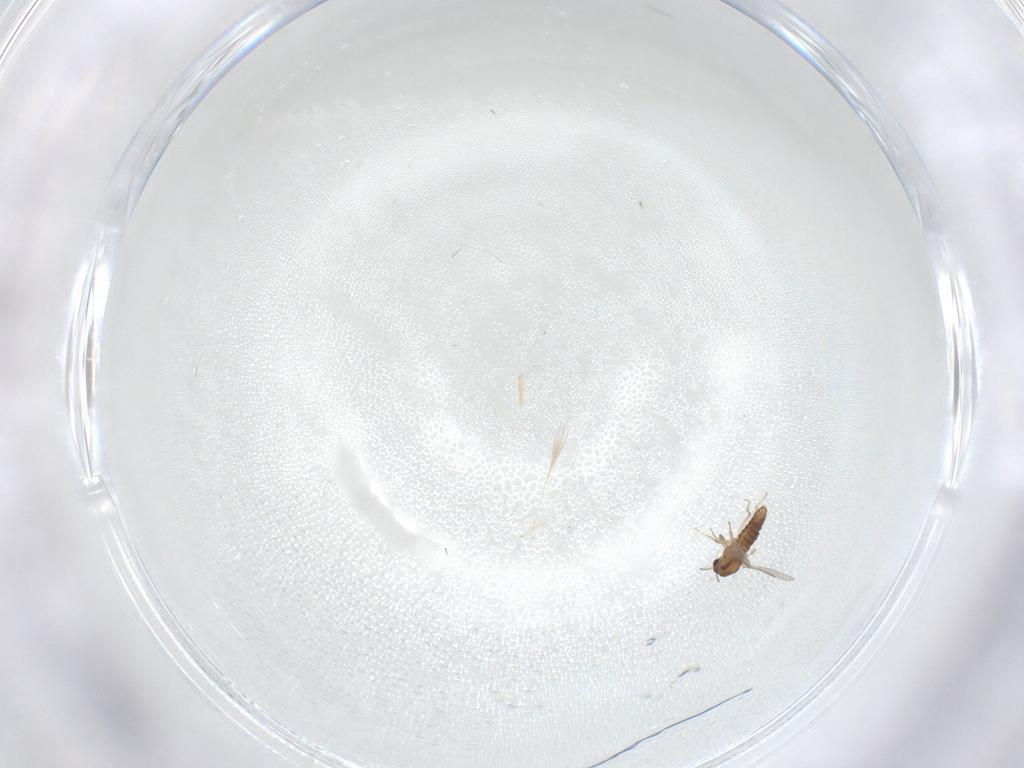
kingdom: Animalia
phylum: Arthropoda
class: Insecta
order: Diptera
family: Chironomidae
